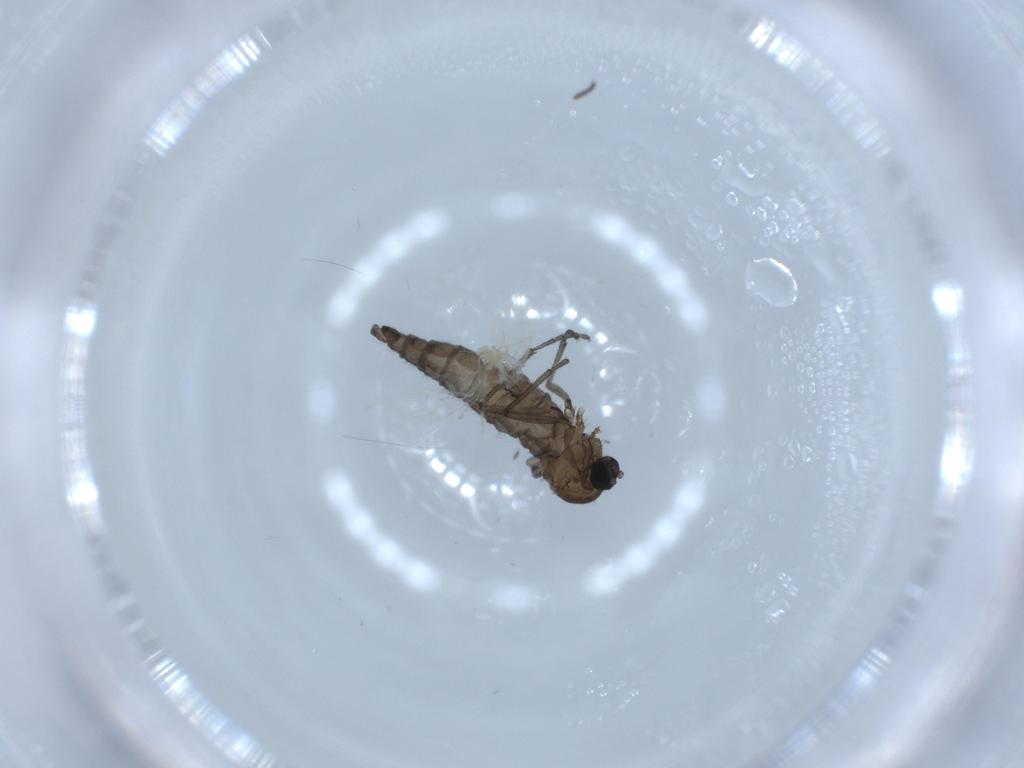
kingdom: Animalia
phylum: Arthropoda
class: Insecta
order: Diptera
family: Sciaridae
